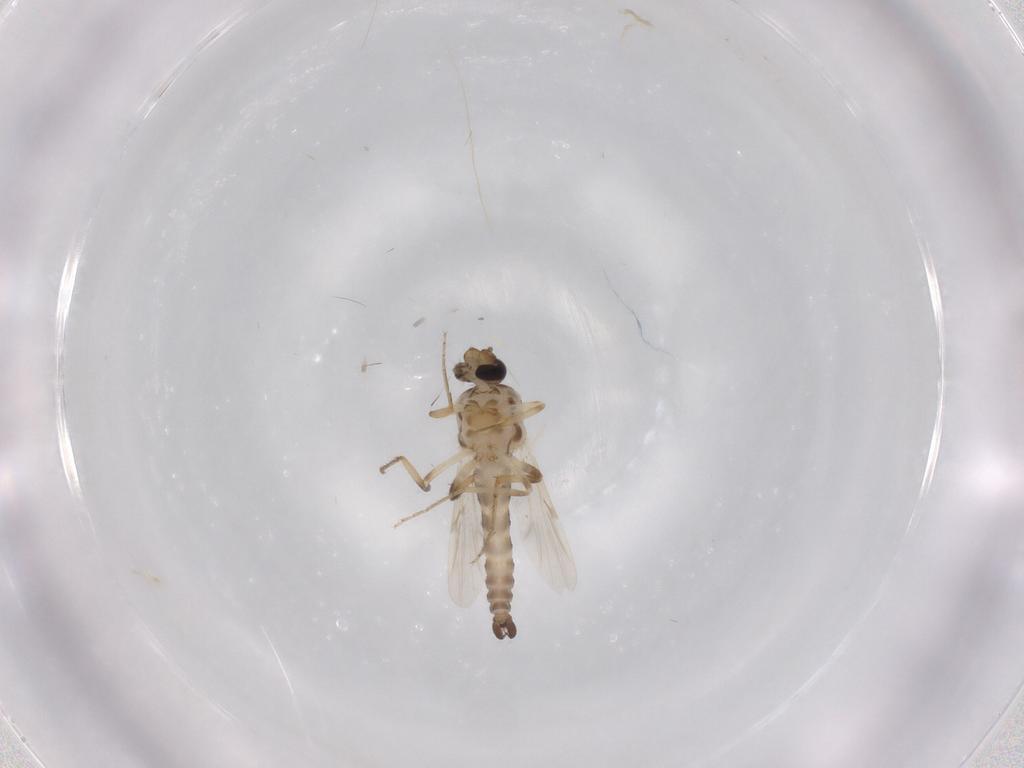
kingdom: Animalia
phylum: Arthropoda
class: Insecta
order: Diptera
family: Ceratopogonidae
